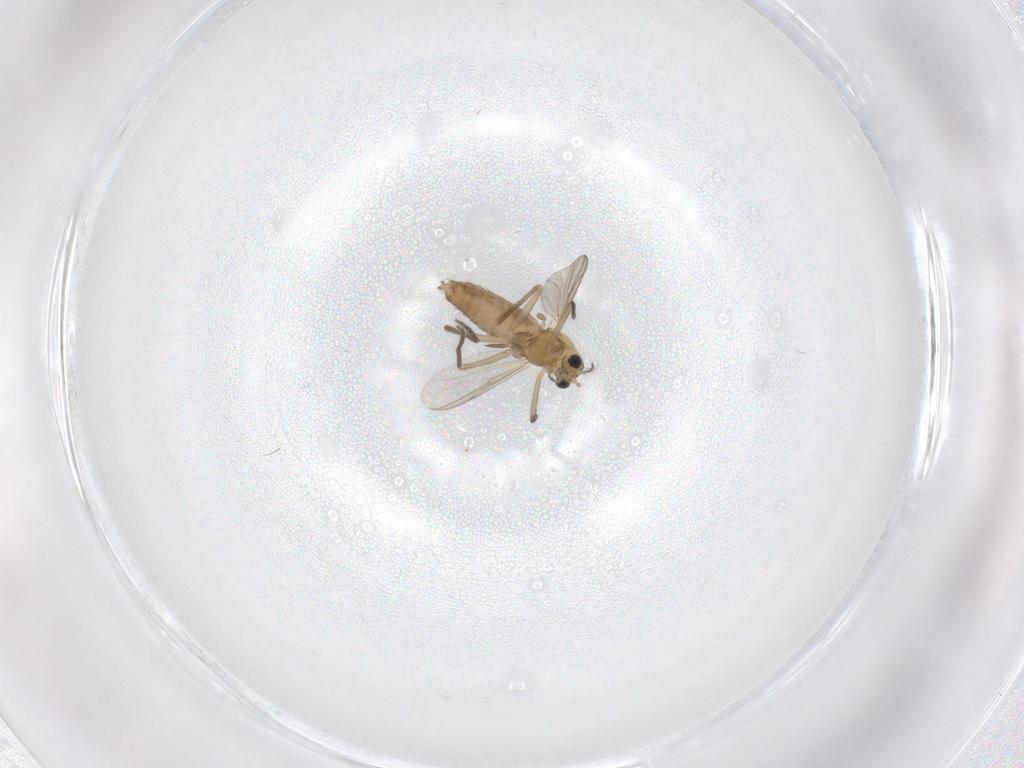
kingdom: Animalia
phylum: Arthropoda
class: Insecta
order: Diptera
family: Chironomidae
